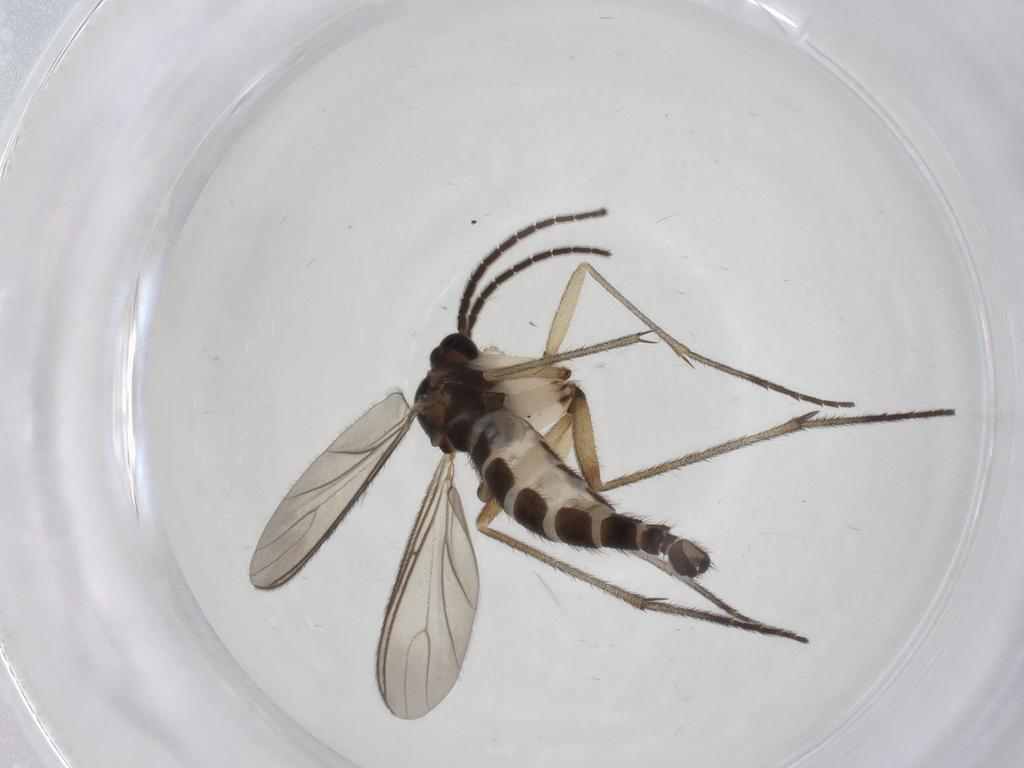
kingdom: Animalia
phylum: Arthropoda
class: Insecta
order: Diptera
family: Sciaridae
